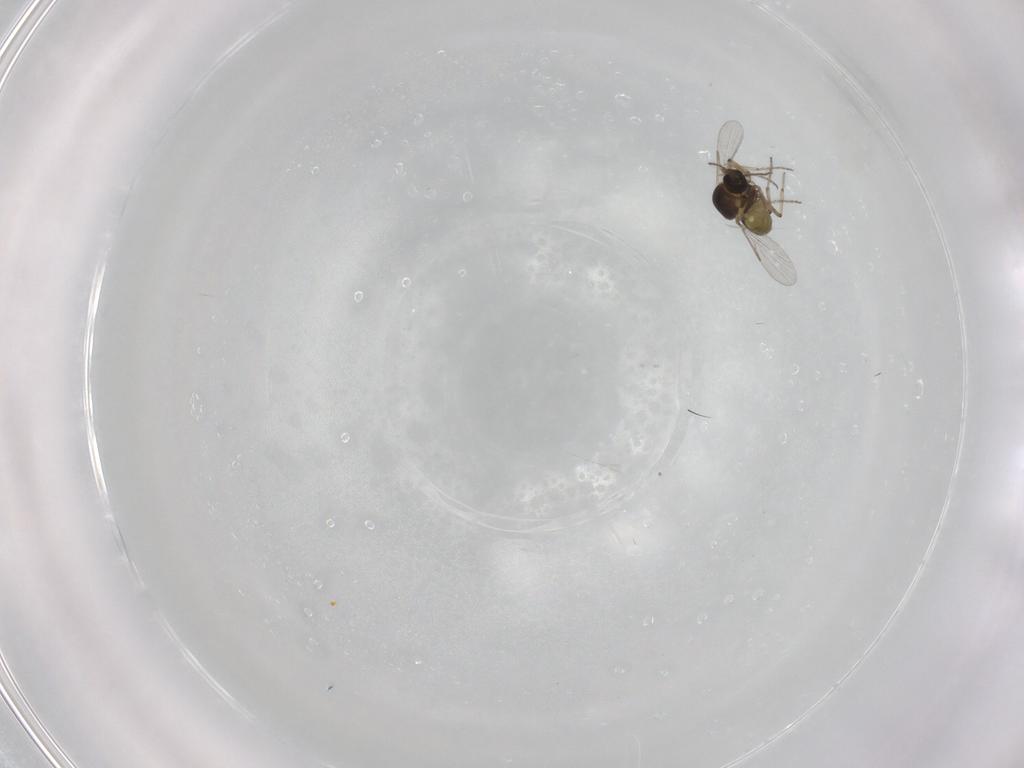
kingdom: Animalia
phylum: Arthropoda
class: Insecta
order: Diptera
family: Ceratopogonidae
